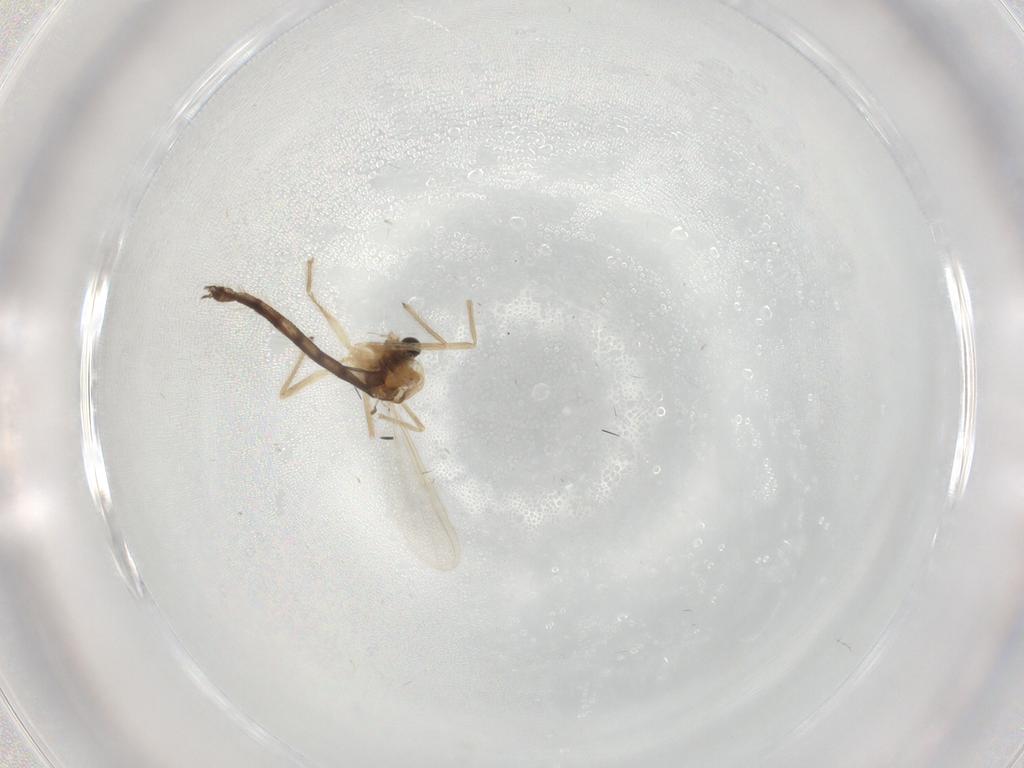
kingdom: Animalia
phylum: Arthropoda
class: Insecta
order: Diptera
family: Chironomidae
